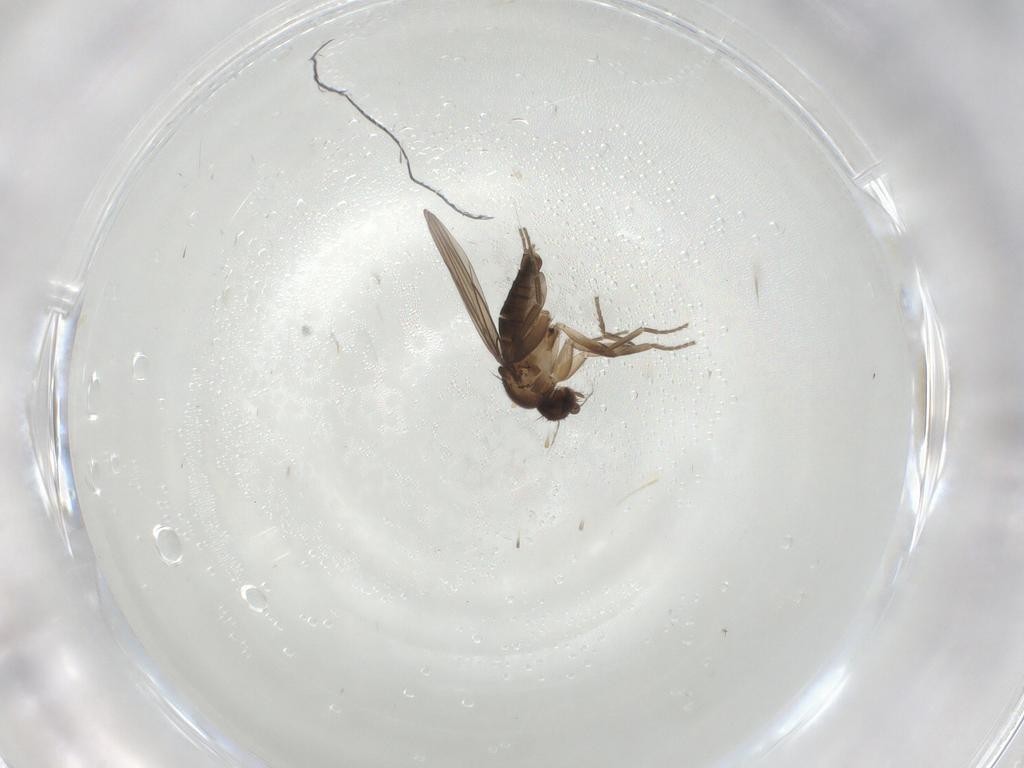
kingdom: Animalia
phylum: Arthropoda
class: Insecta
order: Diptera
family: Phoridae
